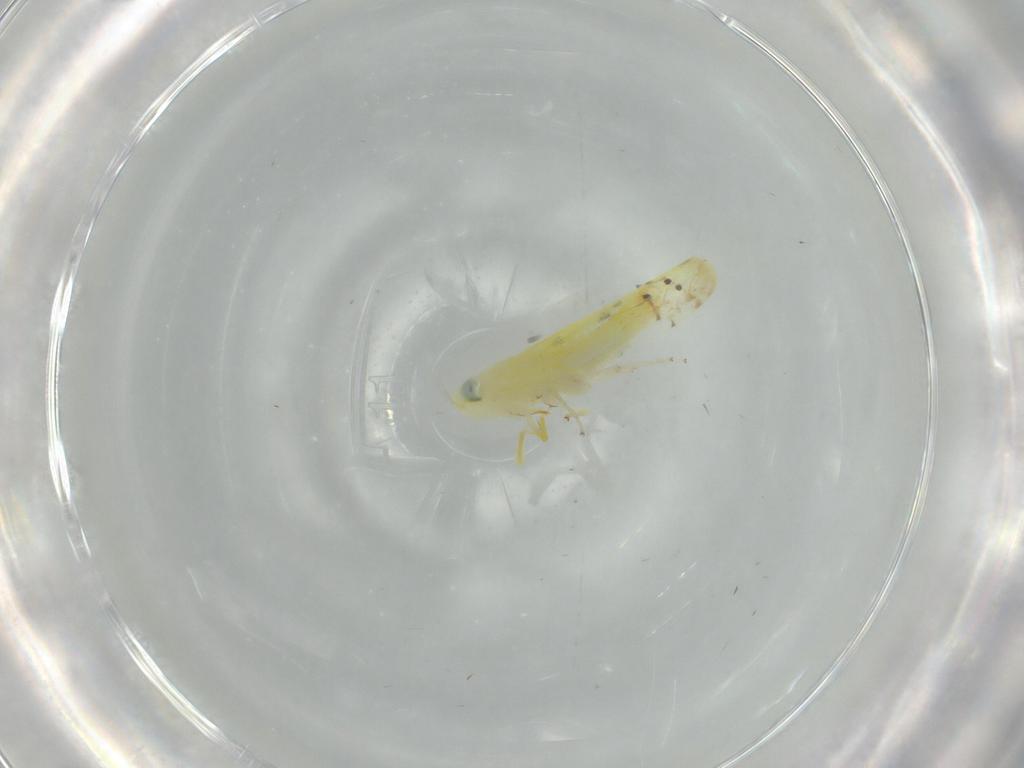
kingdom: Animalia
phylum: Arthropoda
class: Insecta
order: Hemiptera
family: Cicadellidae
